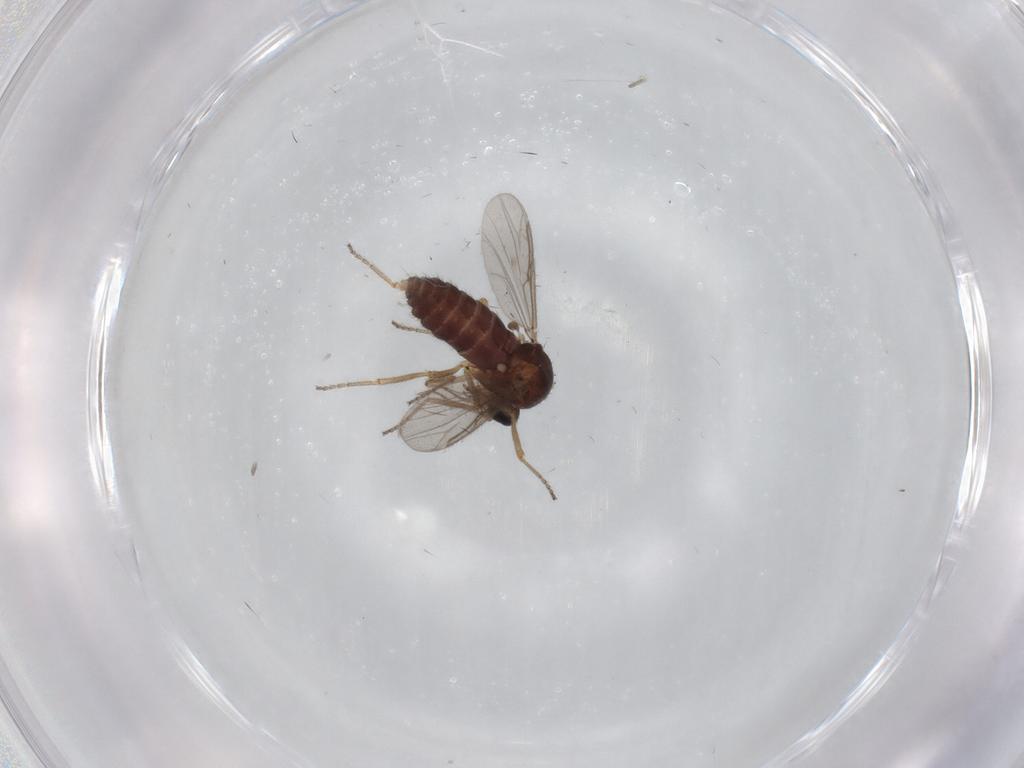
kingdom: Animalia
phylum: Arthropoda
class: Insecta
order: Diptera
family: Ceratopogonidae
